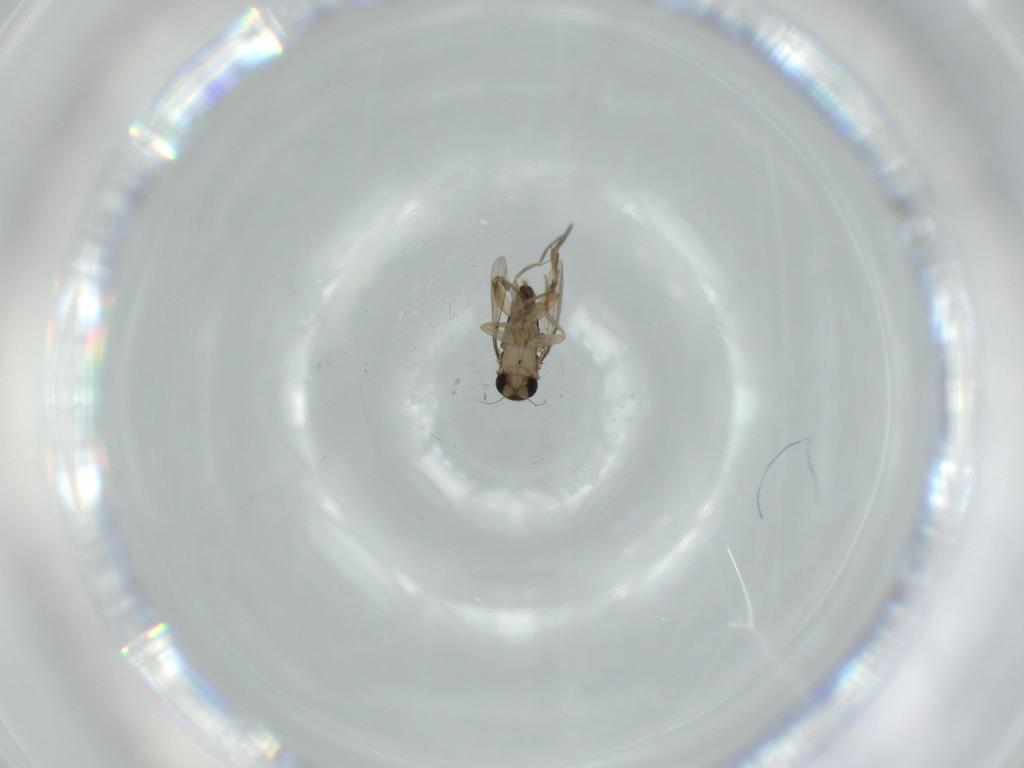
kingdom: Animalia
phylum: Arthropoda
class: Insecta
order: Diptera
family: Phoridae
